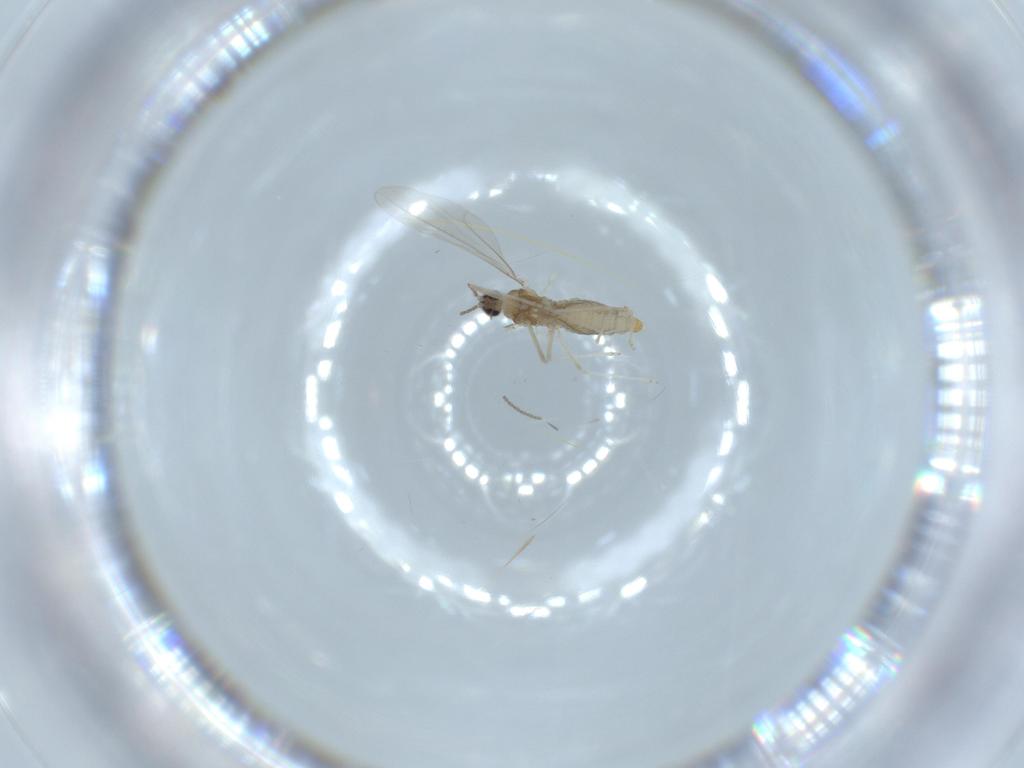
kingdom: Animalia
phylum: Arthropoda
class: Insecta
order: Diptera
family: Cecidomyiidae
